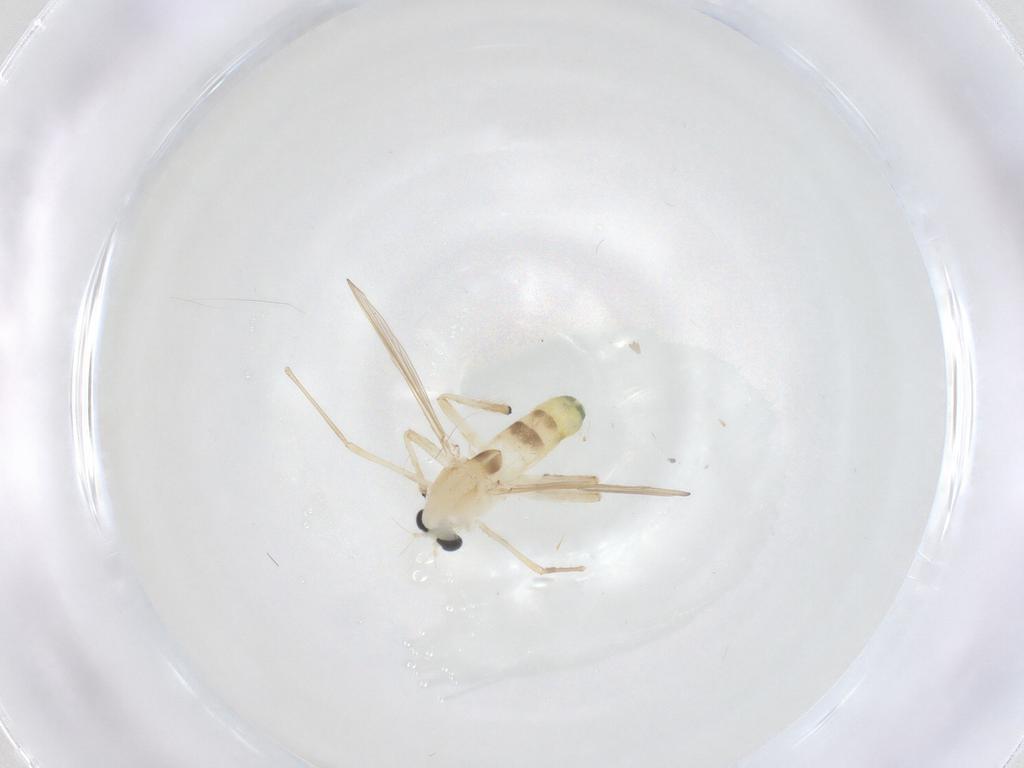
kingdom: Animalia
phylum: Arthropoda
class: Insecta
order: Diptera
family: Chironomidae
